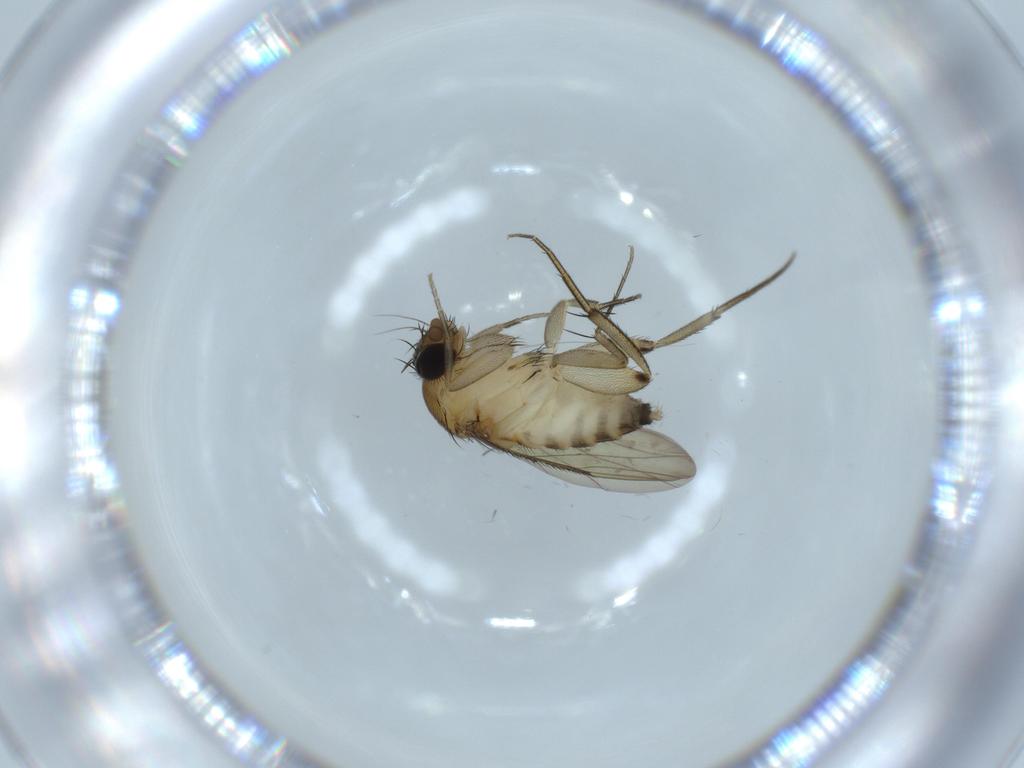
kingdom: Animalia
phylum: Arthropoda
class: Insecta
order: Diptera
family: Phoridae
